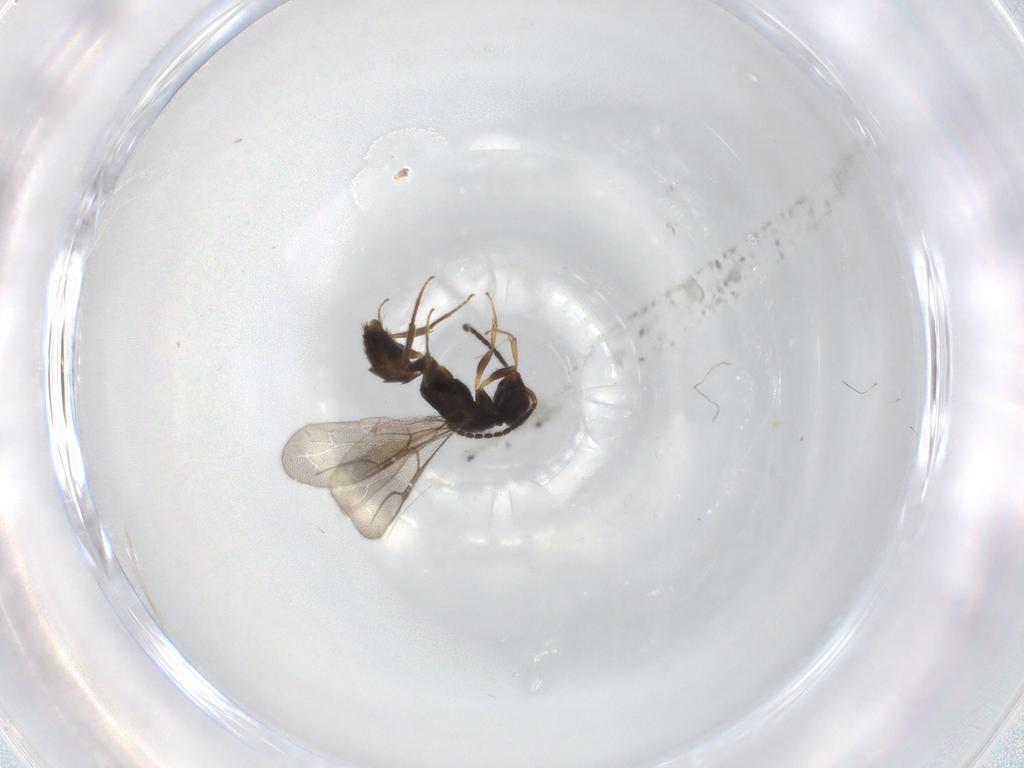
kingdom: Animalia
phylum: Arthropoda
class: Insecta
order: Hymenoptera
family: Bethylidae
